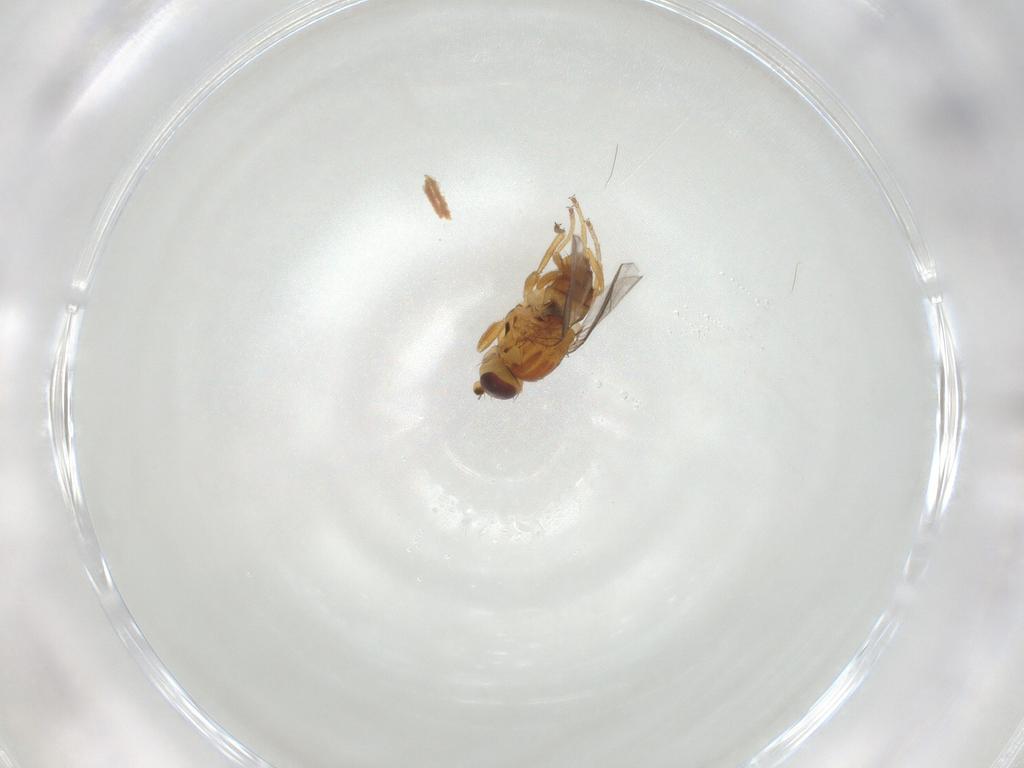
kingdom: Animalia
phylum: Arthropoda
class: Insecta
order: Diptera
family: Chloropidae
